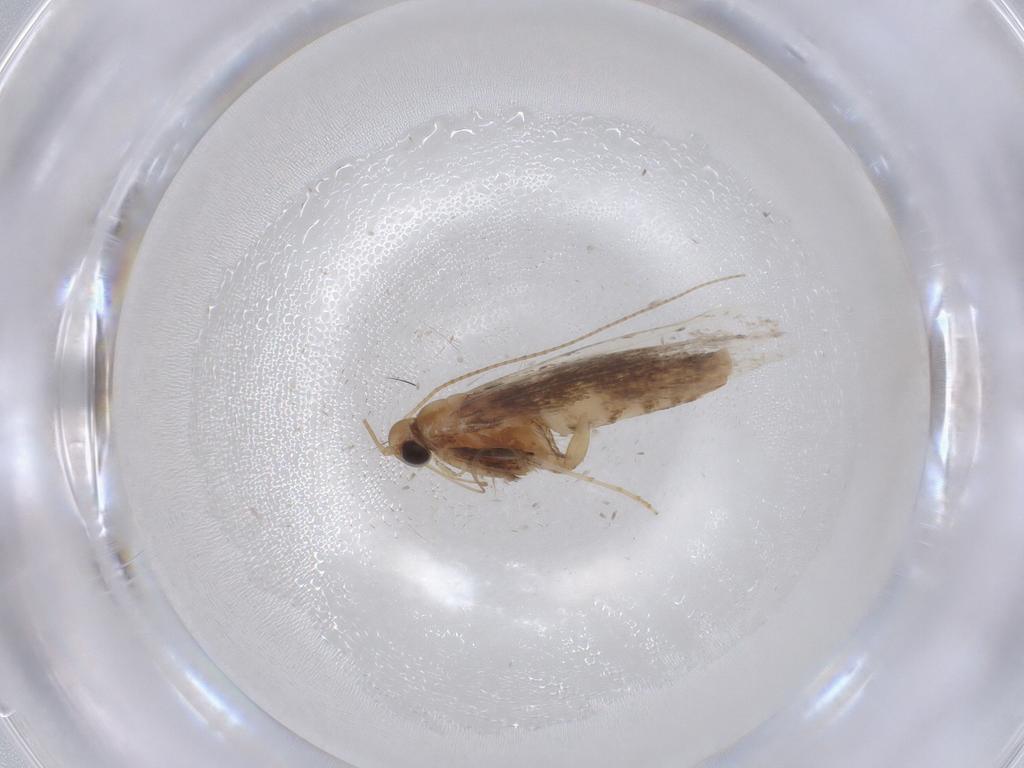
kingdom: Animalia
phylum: Arthropoda
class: Insecta
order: Lepidoptera
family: Gracillariidae
